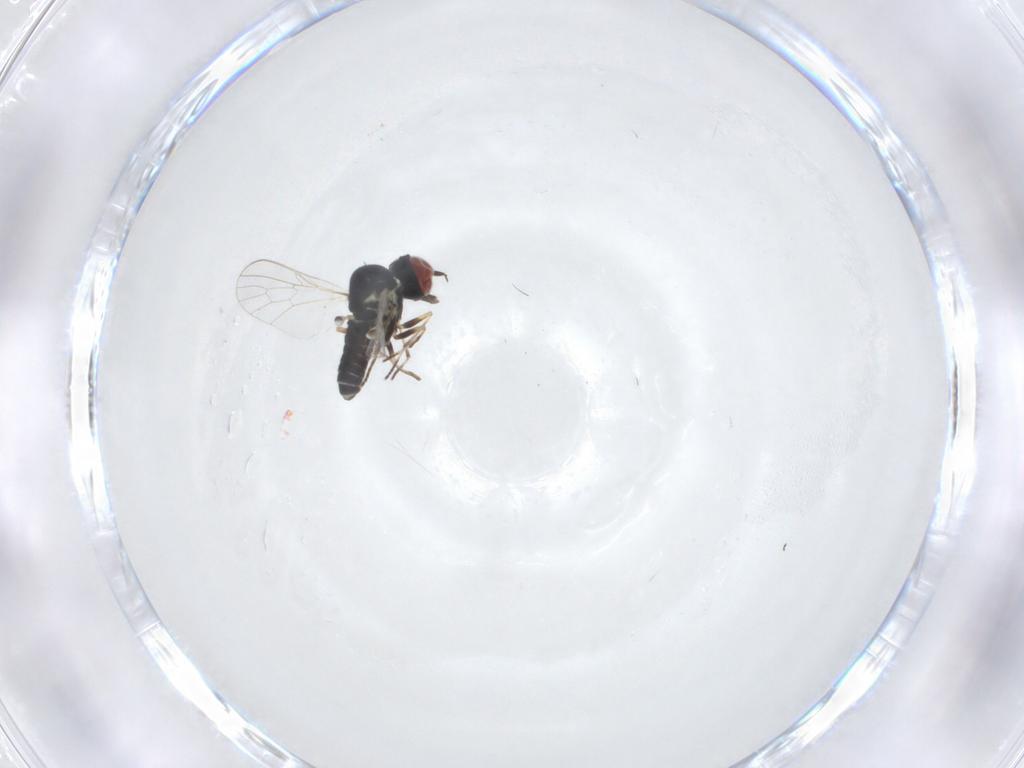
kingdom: Animalia
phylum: Arthropoda
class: Insecta
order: Diptera
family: Mythicomyiidae
